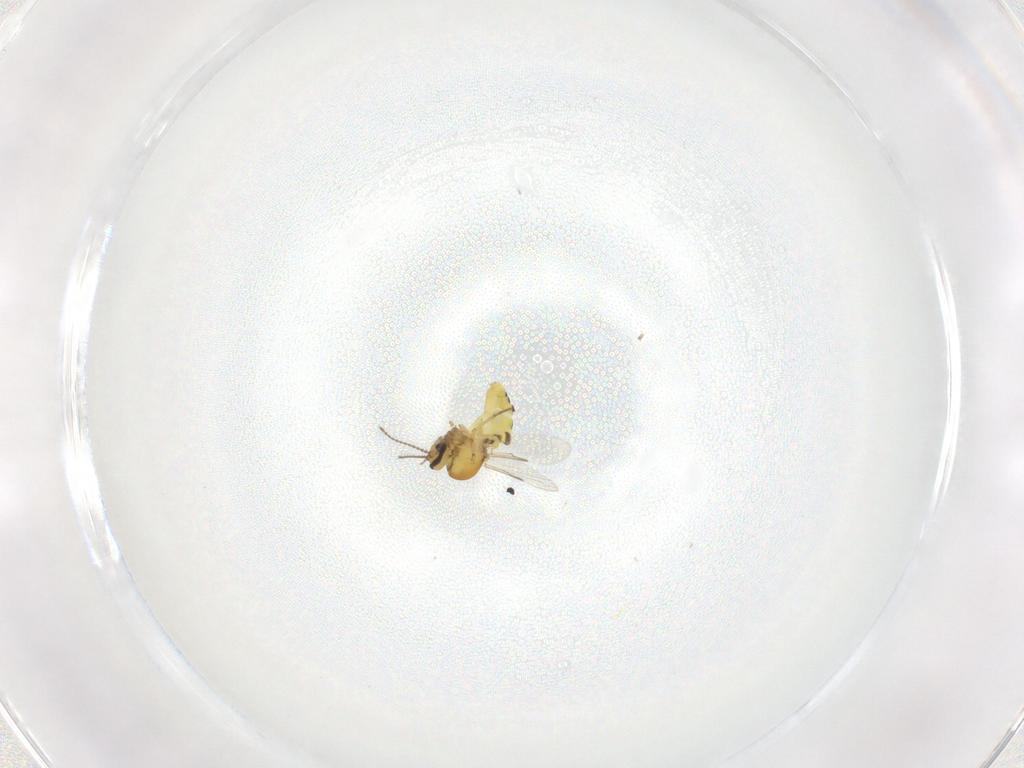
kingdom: Animalia
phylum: Arthropoda
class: Insecta
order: Diptera
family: Ceratopogonidae
